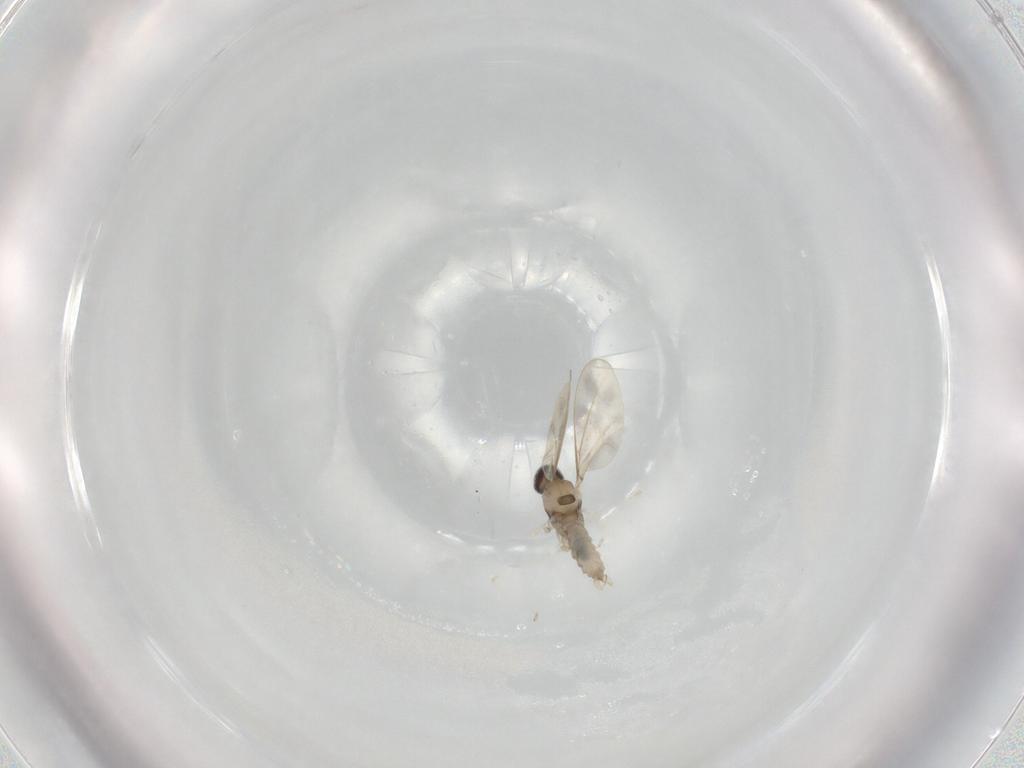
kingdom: Animalia
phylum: Arthropoda
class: Insecta
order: Diptera
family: Cecidomyiidae
